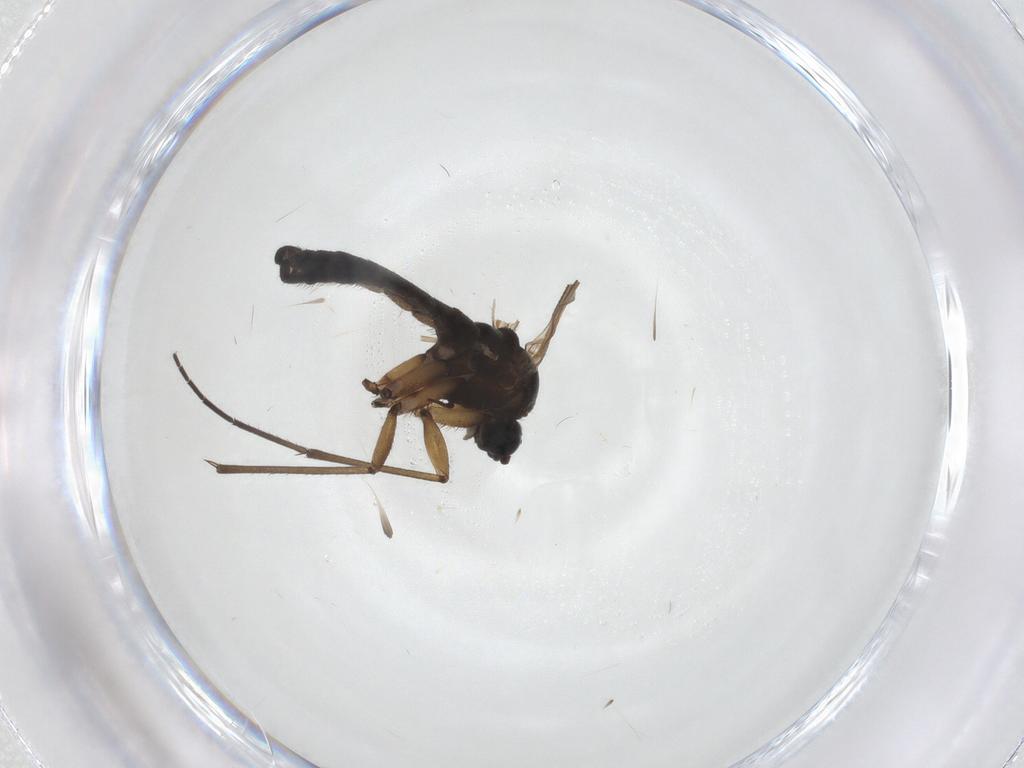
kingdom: Animalia
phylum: Arthropoda
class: Insecta
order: Diptera
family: Sciaridae
